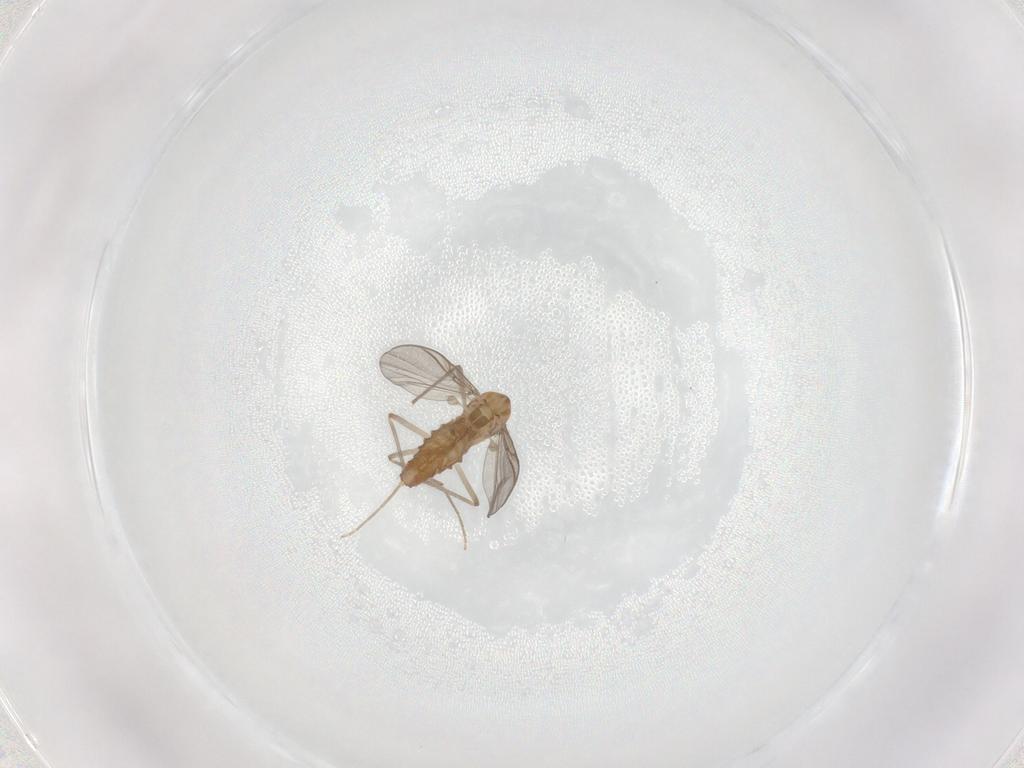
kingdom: Animalia
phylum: Arthropoda
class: Insecta
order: Diptera
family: Chironomidae
